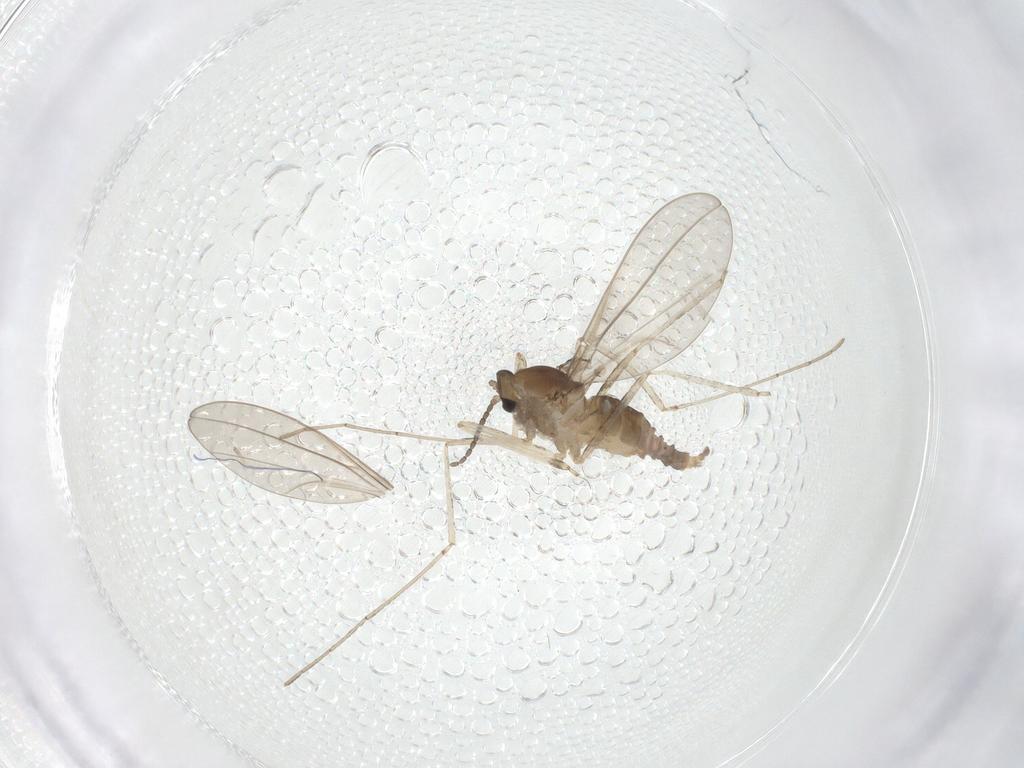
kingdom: Animalia
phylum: Arthropoda
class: Insecta
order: Diptera
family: Cecidomyiidae
